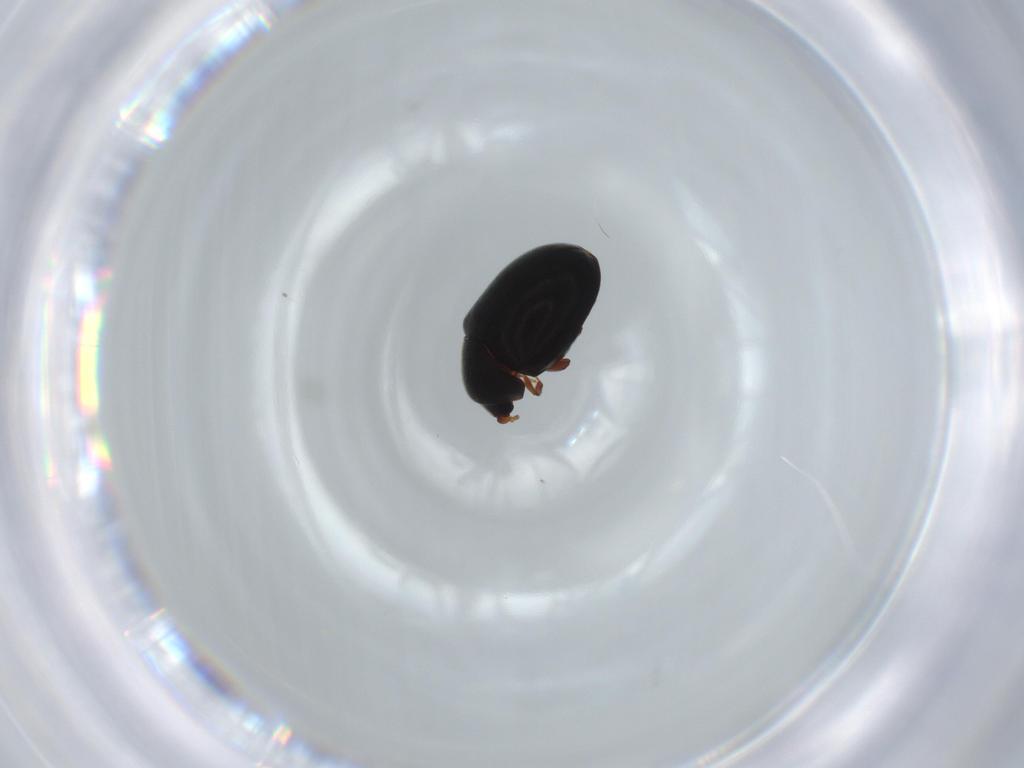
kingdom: Animalia
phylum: Arthropoda
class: Insecta
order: Coleoptera
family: Ptinidae
